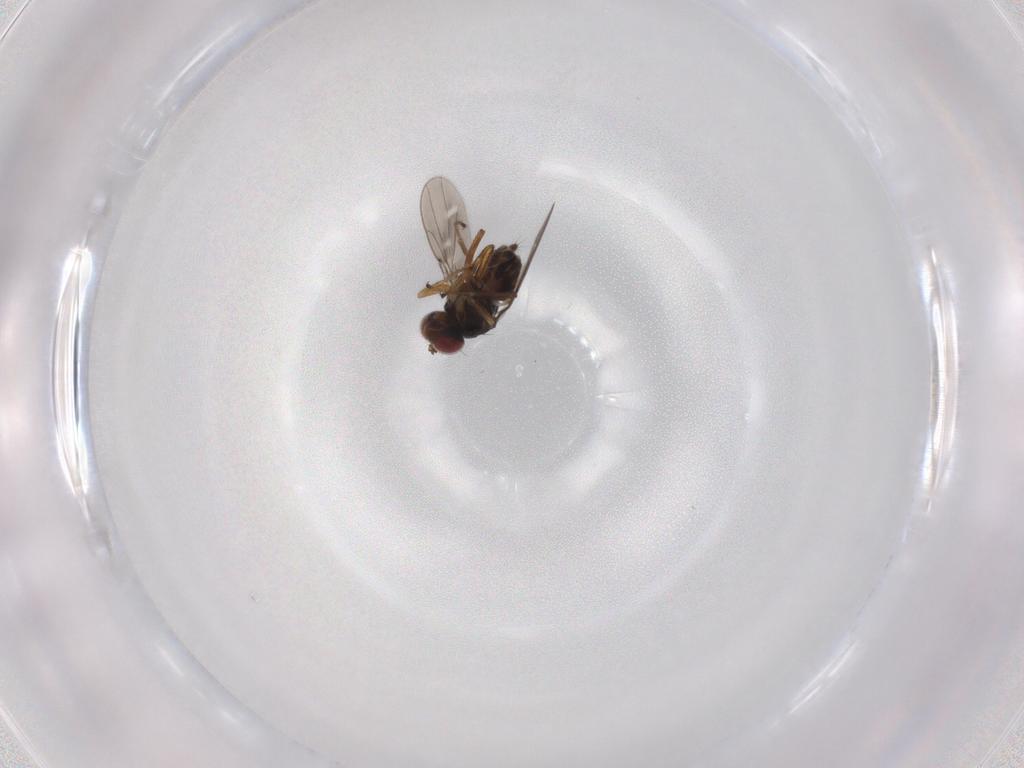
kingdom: Animalia
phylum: Arthropoda
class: Insecta
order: Diptera
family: Ephydridae
